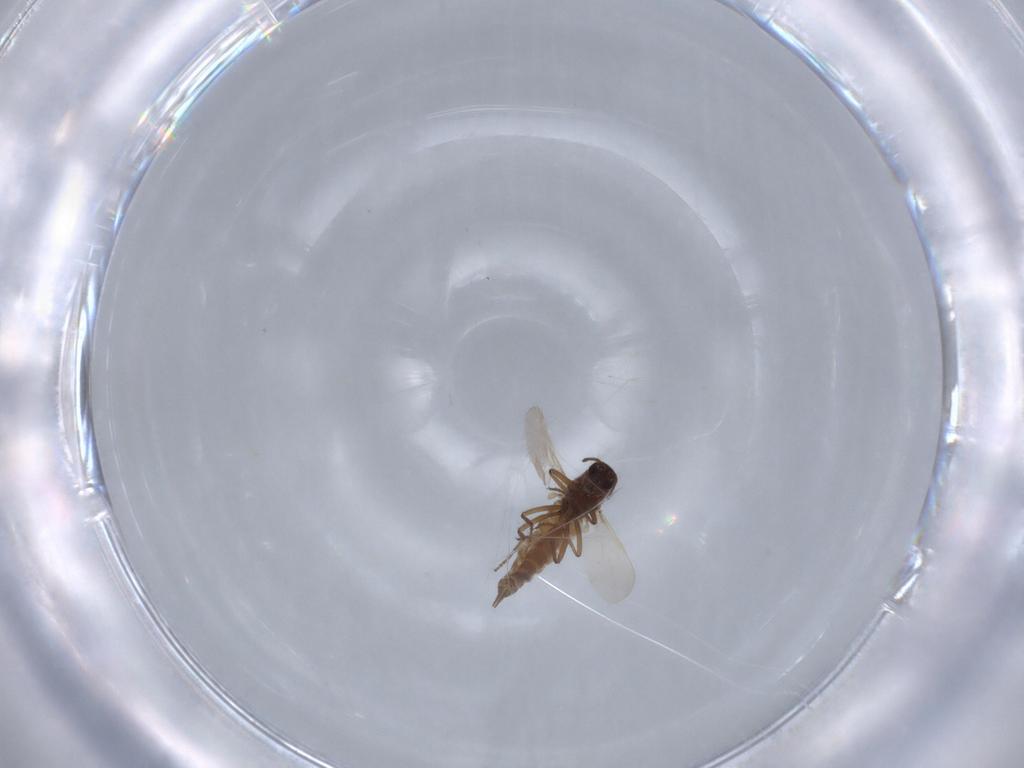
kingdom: Animalia
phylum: Arthropoda
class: Insecta
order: Diptera
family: Ceratopogonidae
